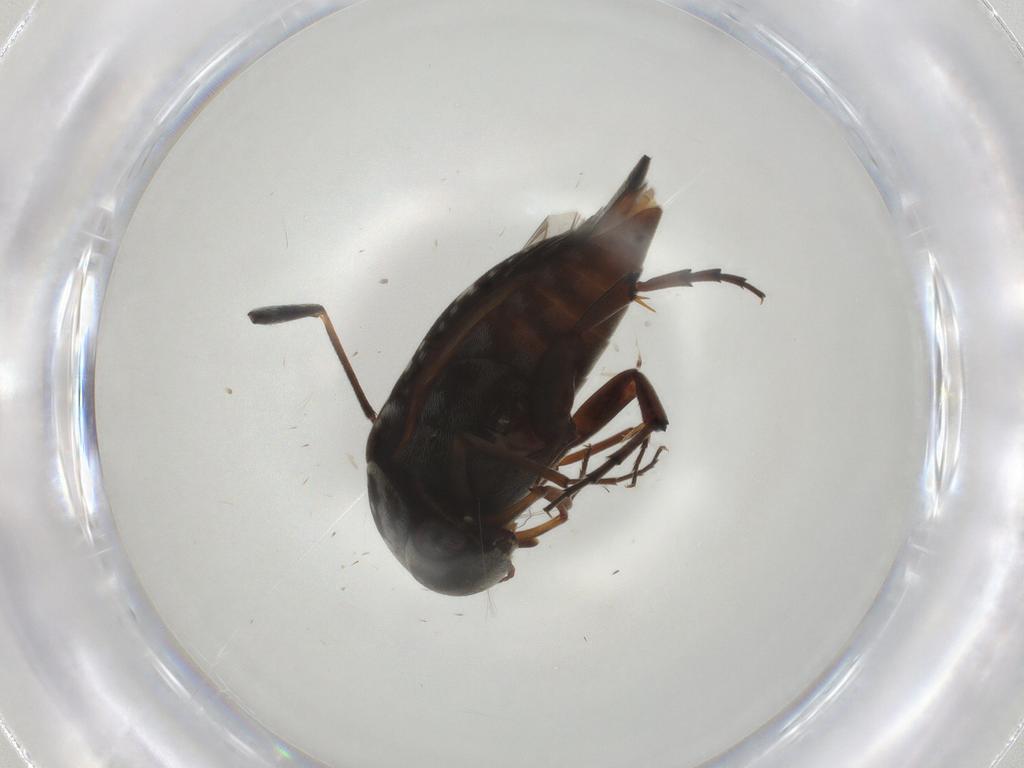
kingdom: Animalia
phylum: Arthropoda
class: Insecta
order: Coleoptera
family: Mordellidae
